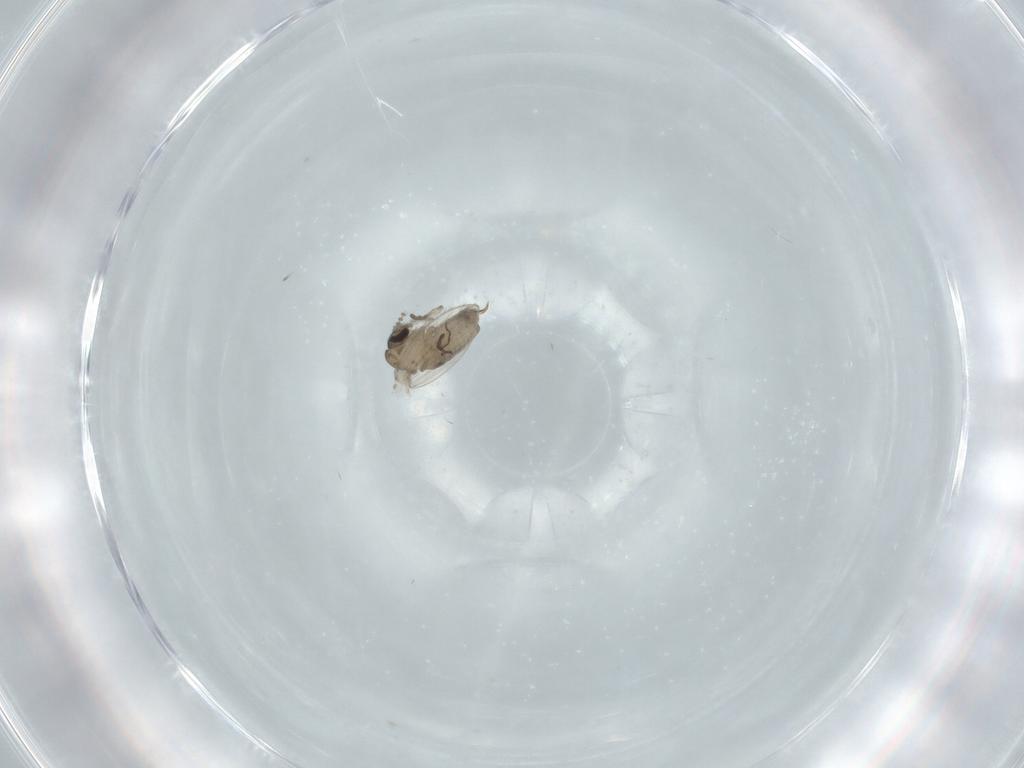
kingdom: Animalia
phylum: Arthropoda
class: Insecta
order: Diptera
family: Psychodidae
